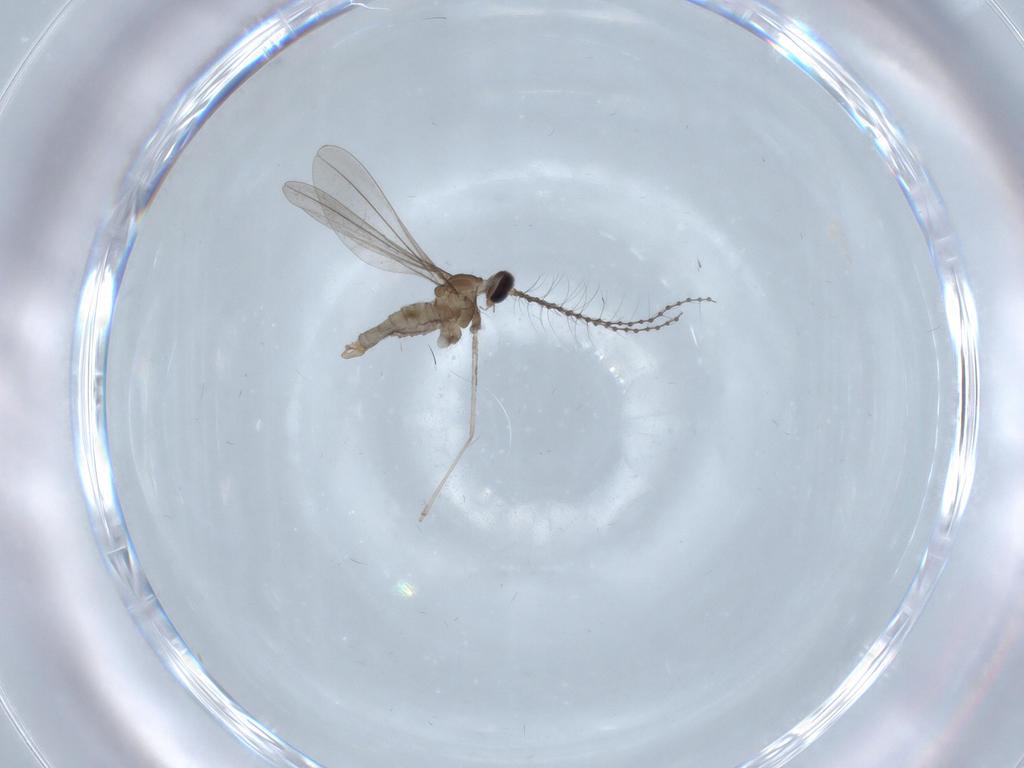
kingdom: Animalia
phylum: Arthropoda
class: Insecta
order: Diptera
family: Cecidomyiidae
